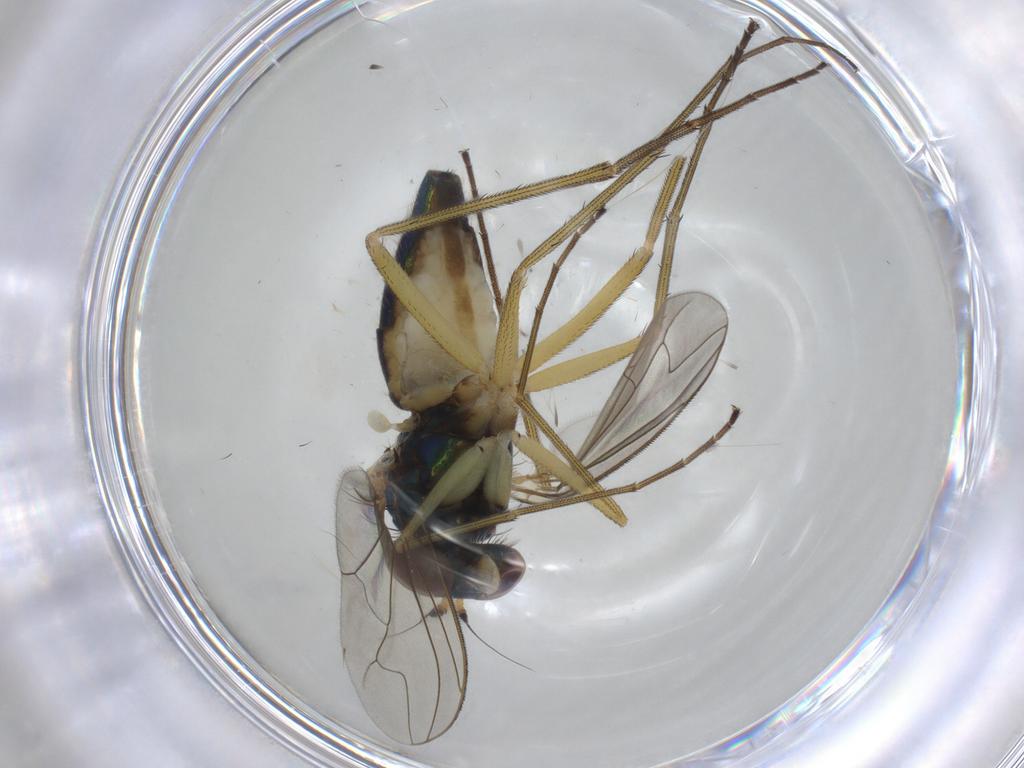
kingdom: Animalia
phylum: Arthropoda
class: Insecta
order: Diptera
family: Dolichopodidae
